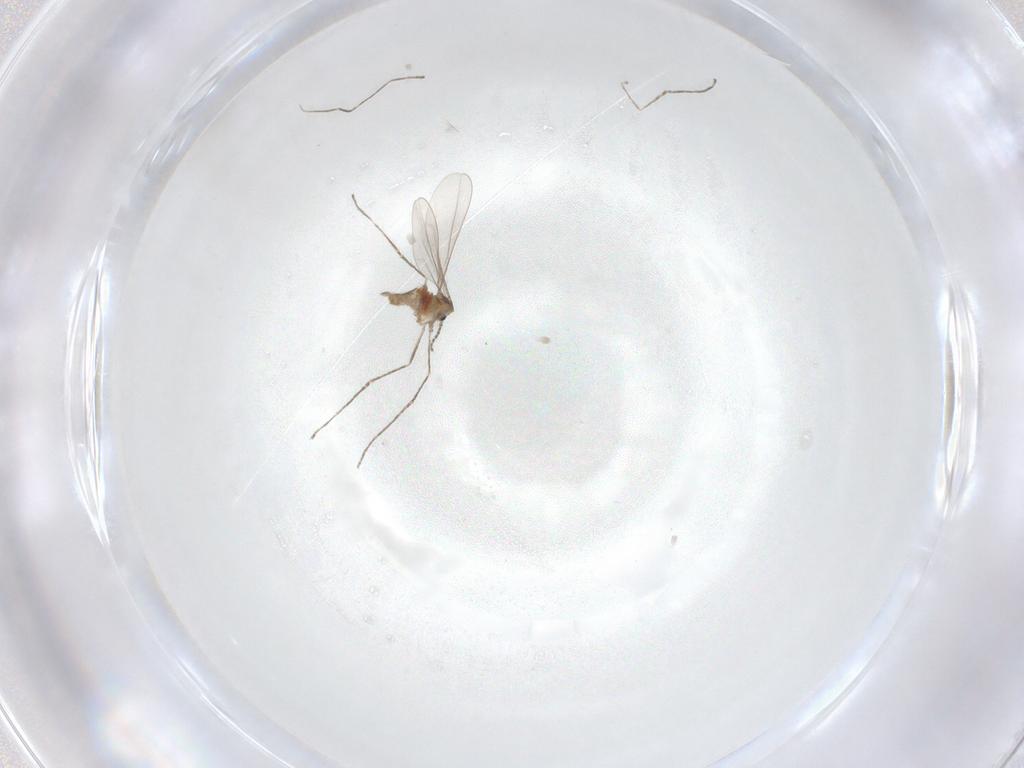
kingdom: Animalia
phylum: Arthropoda
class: Insecta
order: Diptera
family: Cecidomyiidae
